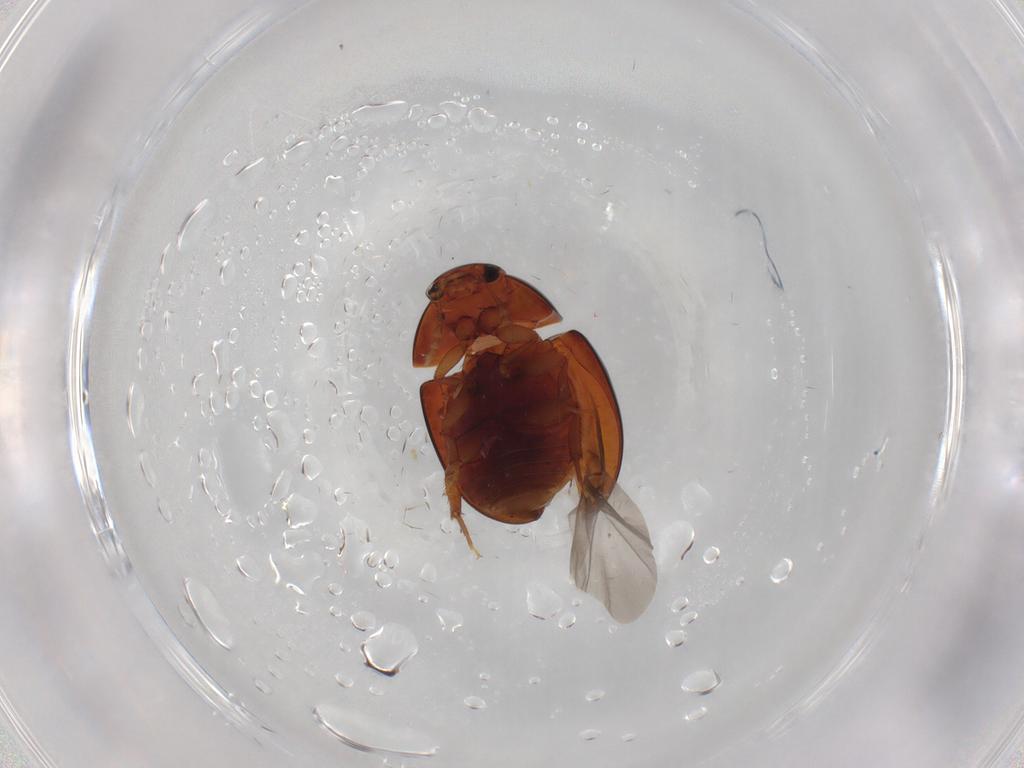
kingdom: Animalia
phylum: Arthropoda
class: Insecta
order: Coleoptera
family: Phalacridae
